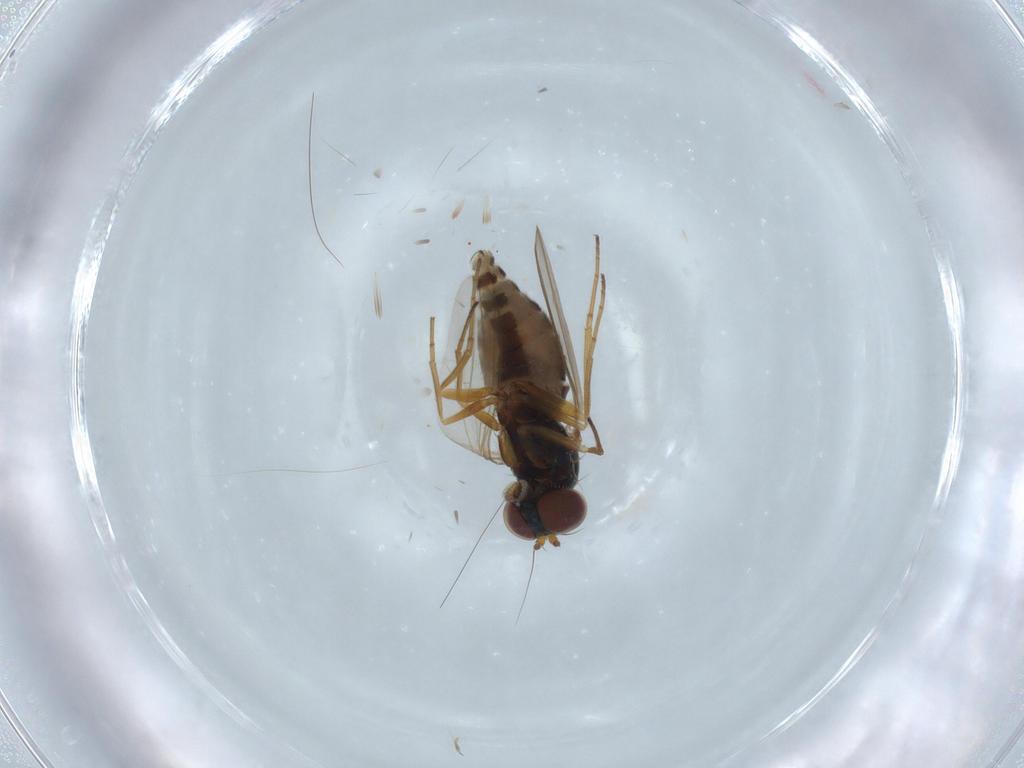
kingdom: Animalia
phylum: Arthropoda
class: Insecta
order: Diptera
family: Dolichopodidae
